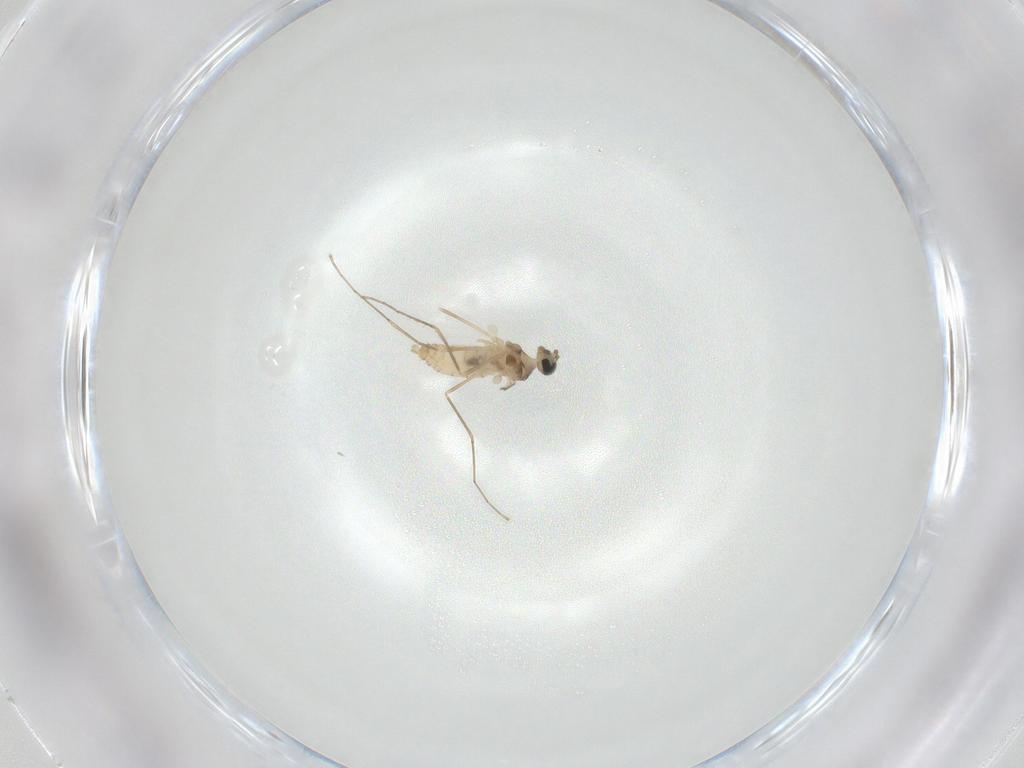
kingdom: Animalia
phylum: Arthropoda
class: Insecta
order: Diptera
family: Cecidomyiidae
